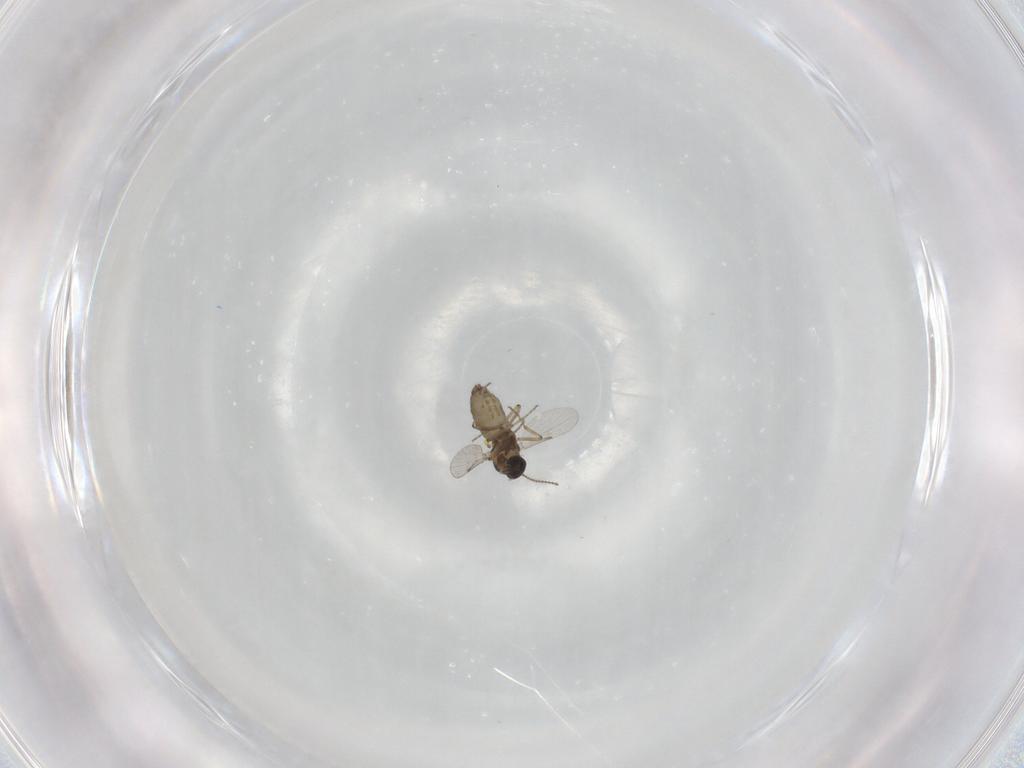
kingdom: Animalia
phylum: Arthropoda
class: Insecta
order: Diptera
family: Ceratopogonidae
